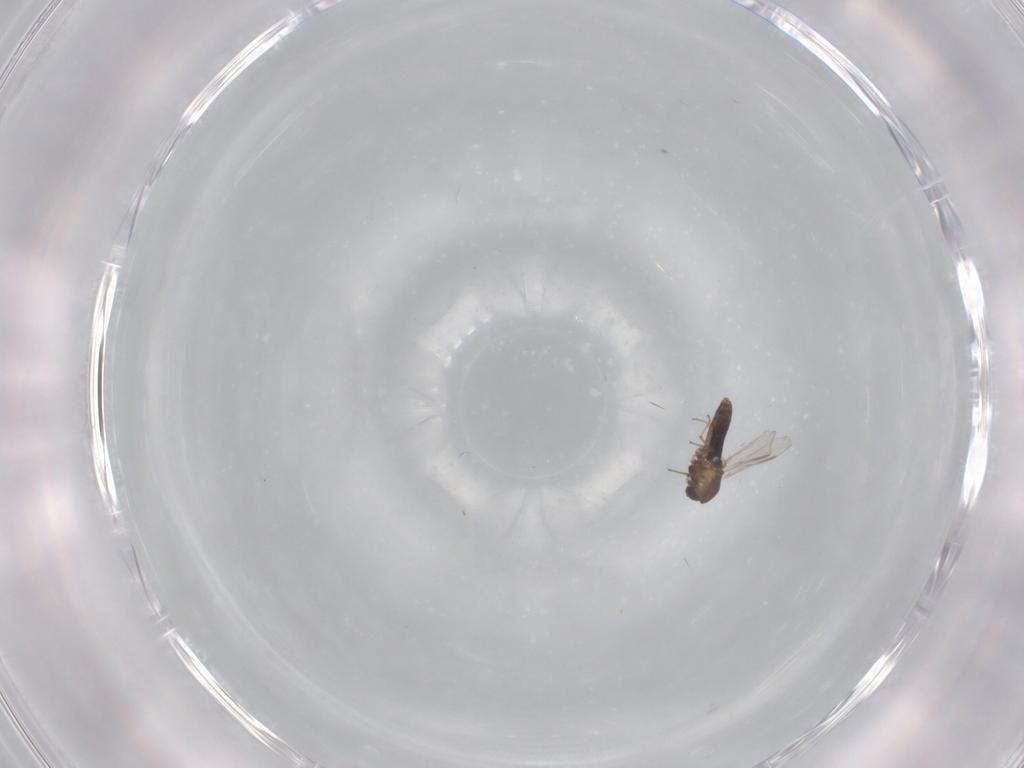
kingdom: Animalia
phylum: Arthropoda
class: Insecta
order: Diptera
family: Chironomidae
